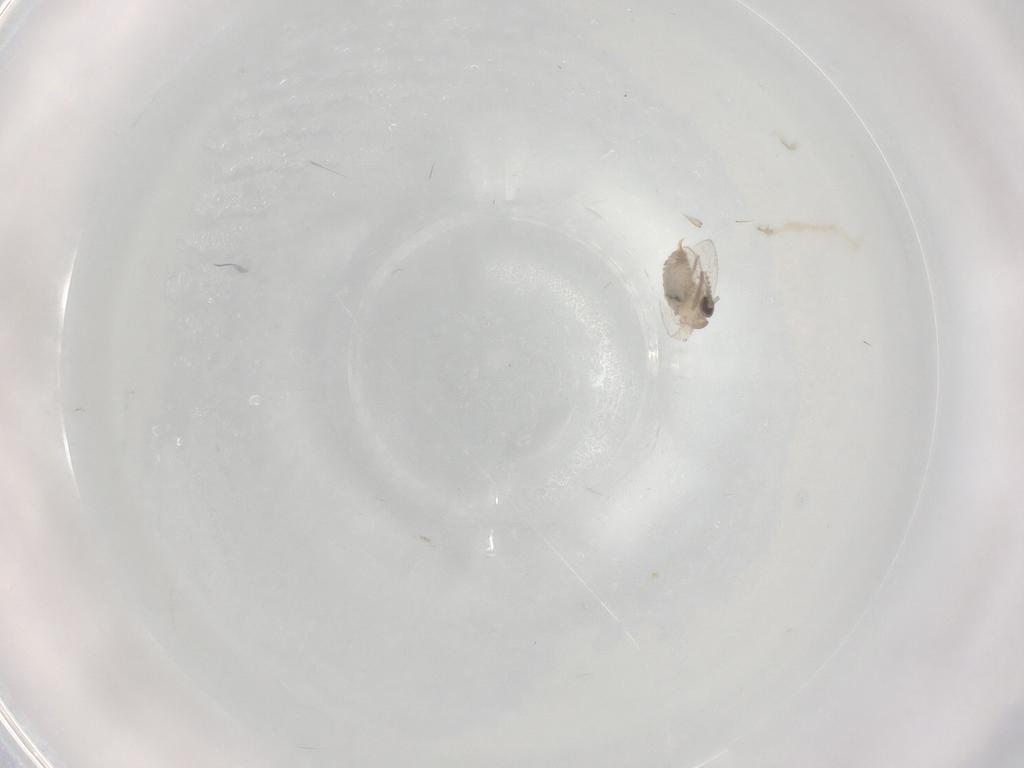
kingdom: Animalia
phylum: Arthropoda
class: Insecta
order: Diptera
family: Psychodidae
